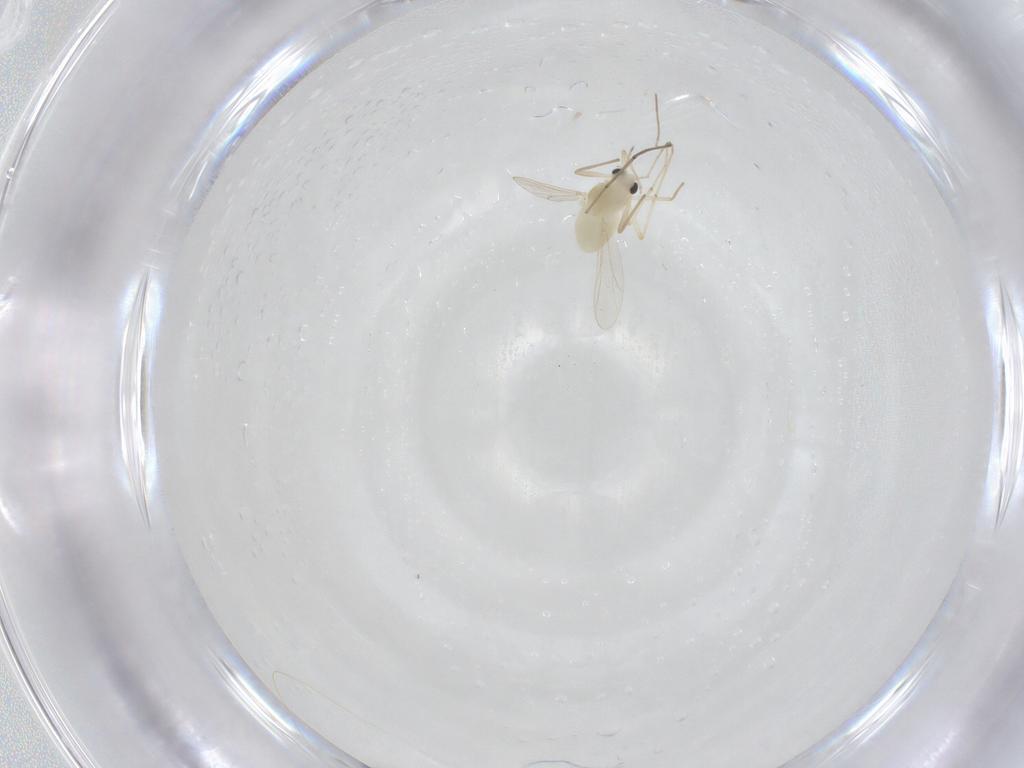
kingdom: Animalia
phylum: Arthropoda
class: Insecta
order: Diptera
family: Chironomidae
